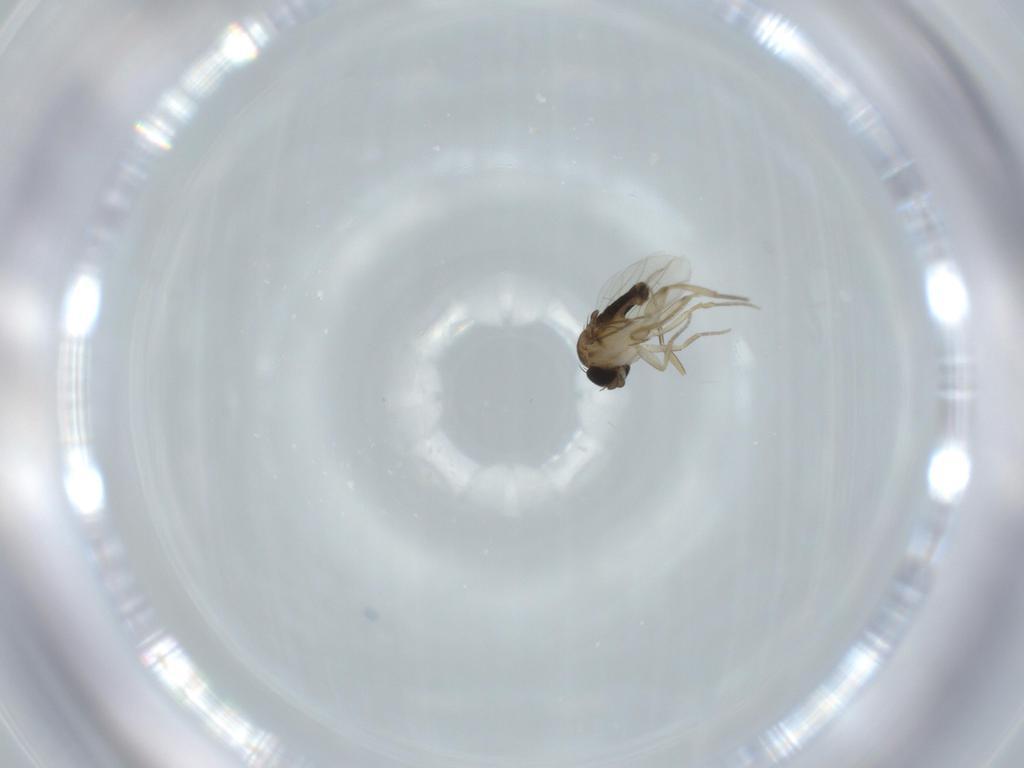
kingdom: Animalia
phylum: Arthropoda
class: Insecta
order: Diptera
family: Phoridae
